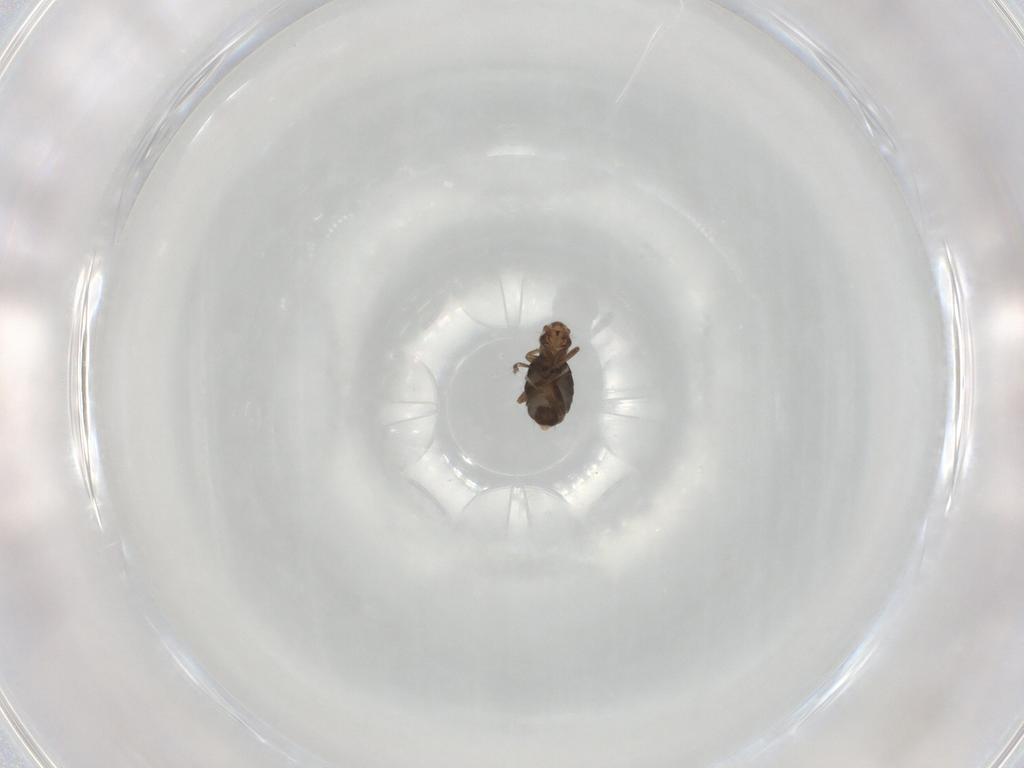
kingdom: Animalia
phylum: Arthropoda
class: Insecta
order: Diptera
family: Phoridae
